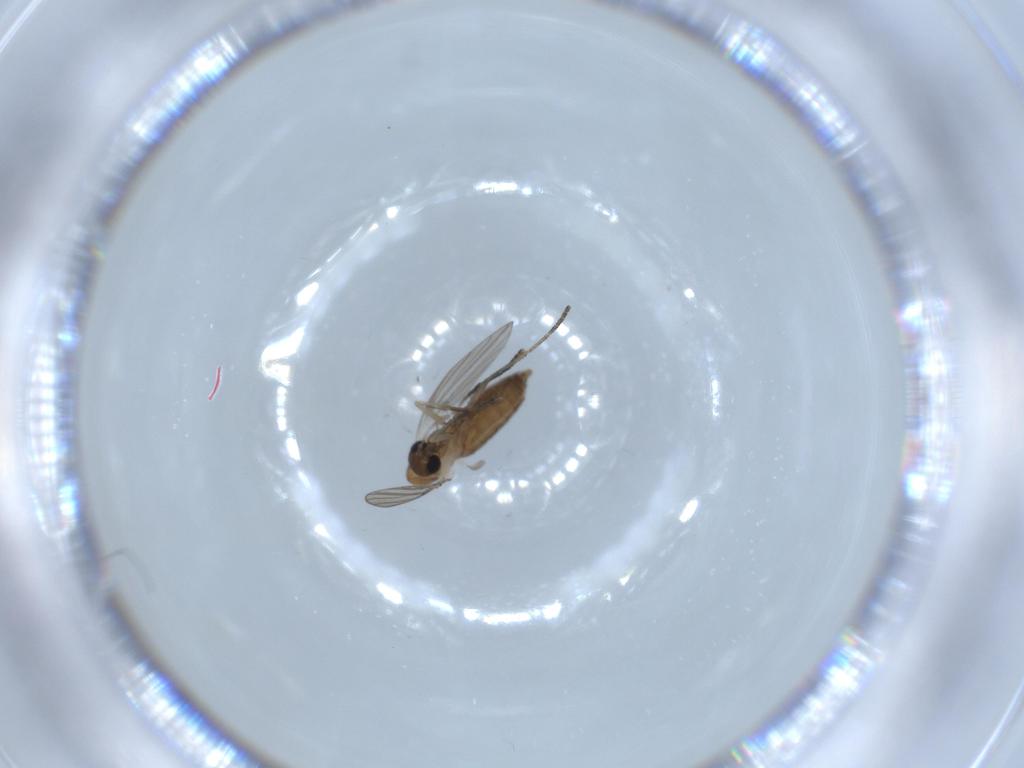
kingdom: Animalia
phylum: Arthropoda
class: Insecta
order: Diptera
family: Psychodidae
